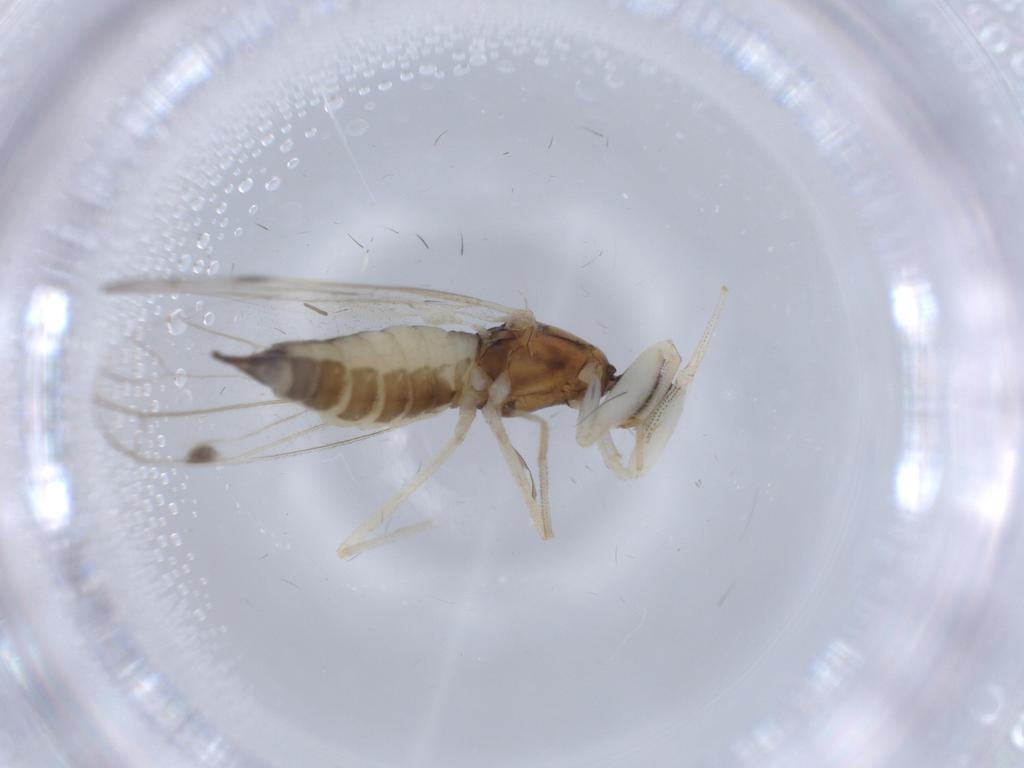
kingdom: Animalia
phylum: Arthropoda
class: Insecta
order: Diptera
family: Empididae
